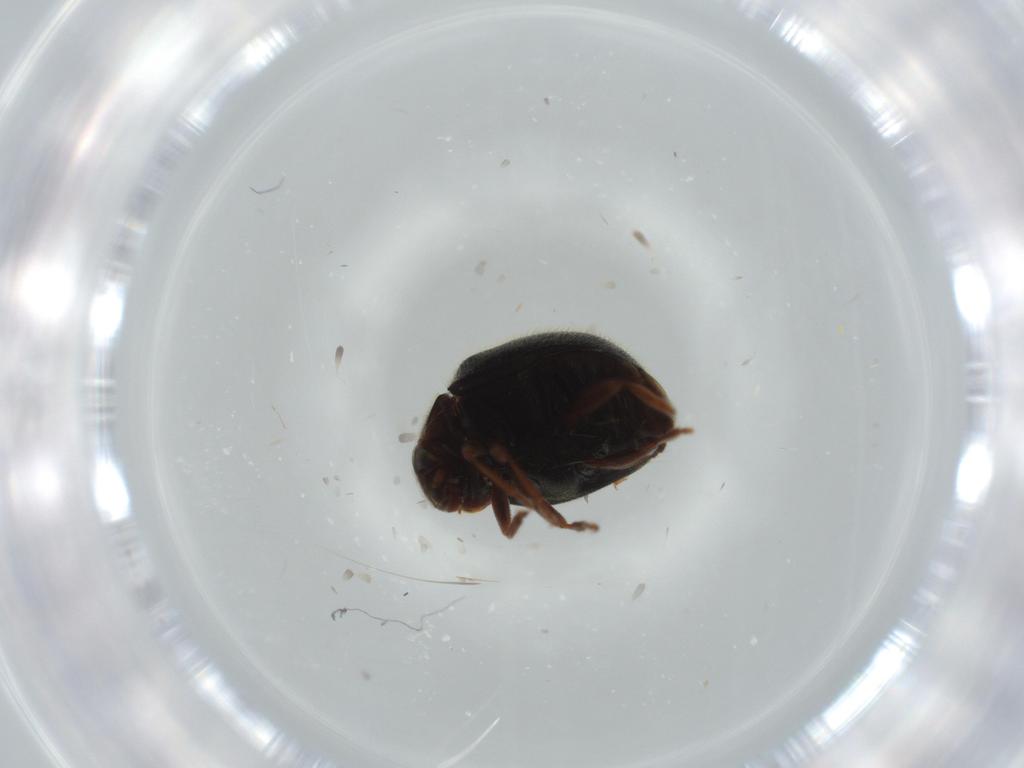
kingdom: Animalia
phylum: Arthropoda
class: Insecta
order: Coleoptera
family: Coccinellidae
